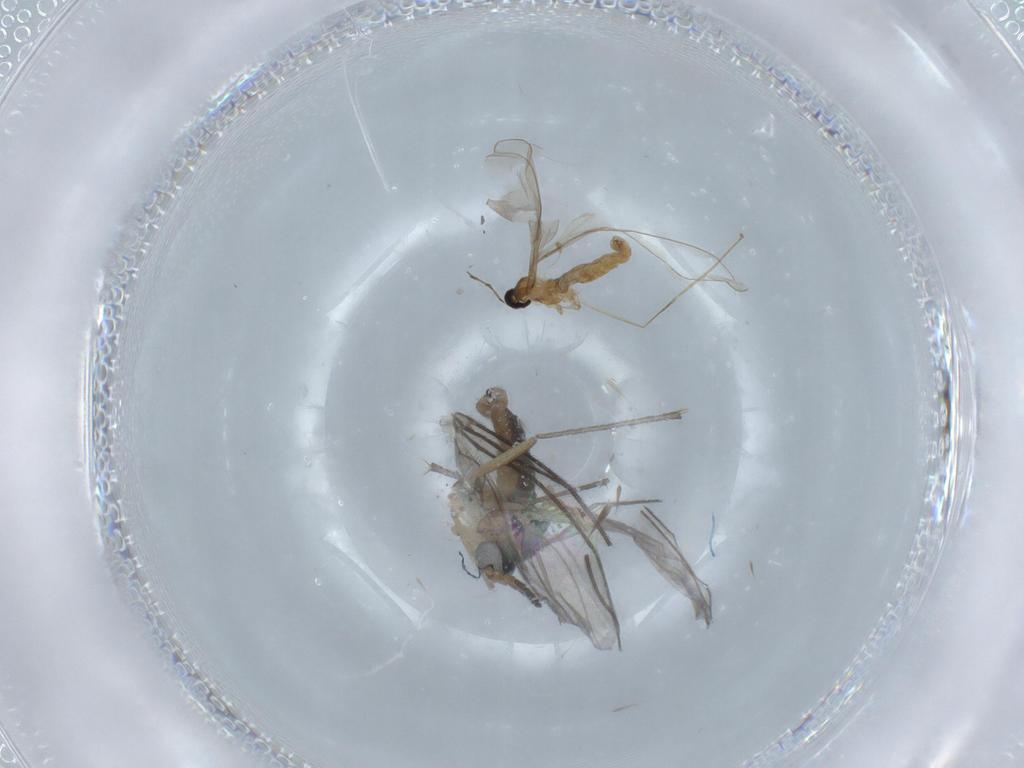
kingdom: Animalia
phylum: Arthropoda
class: Insecta
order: Diptera
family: Cecidomyiidae
